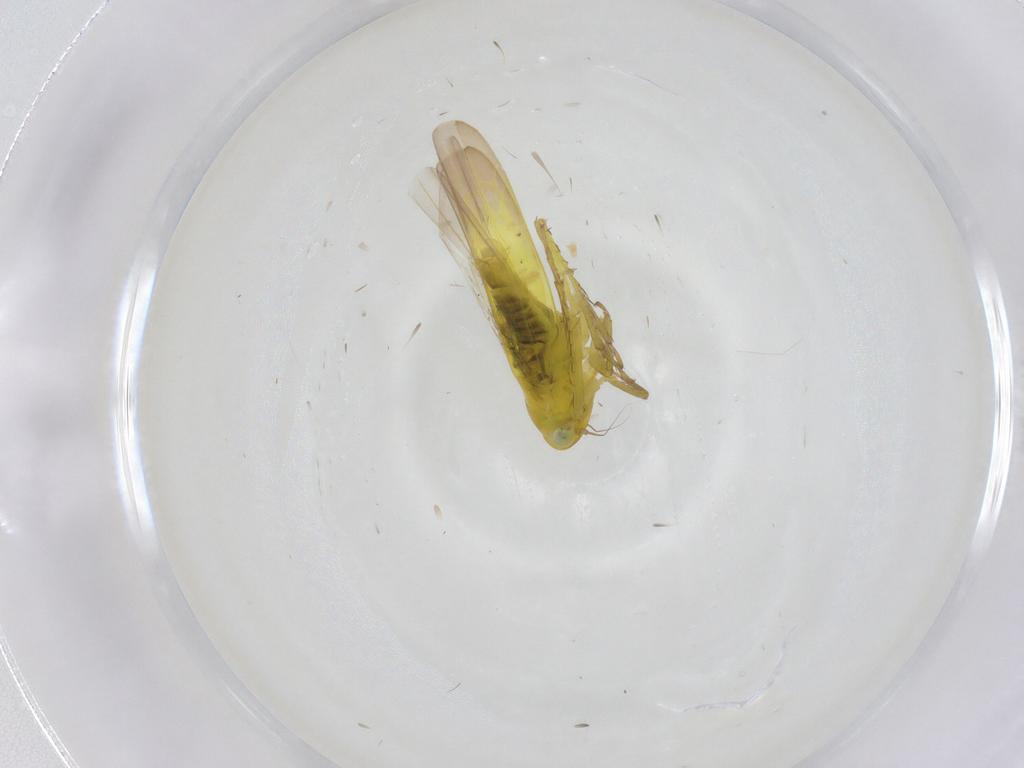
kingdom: Animalia
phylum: Arthropoda
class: Insecta
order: Hemiptera
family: Cicadellidae
